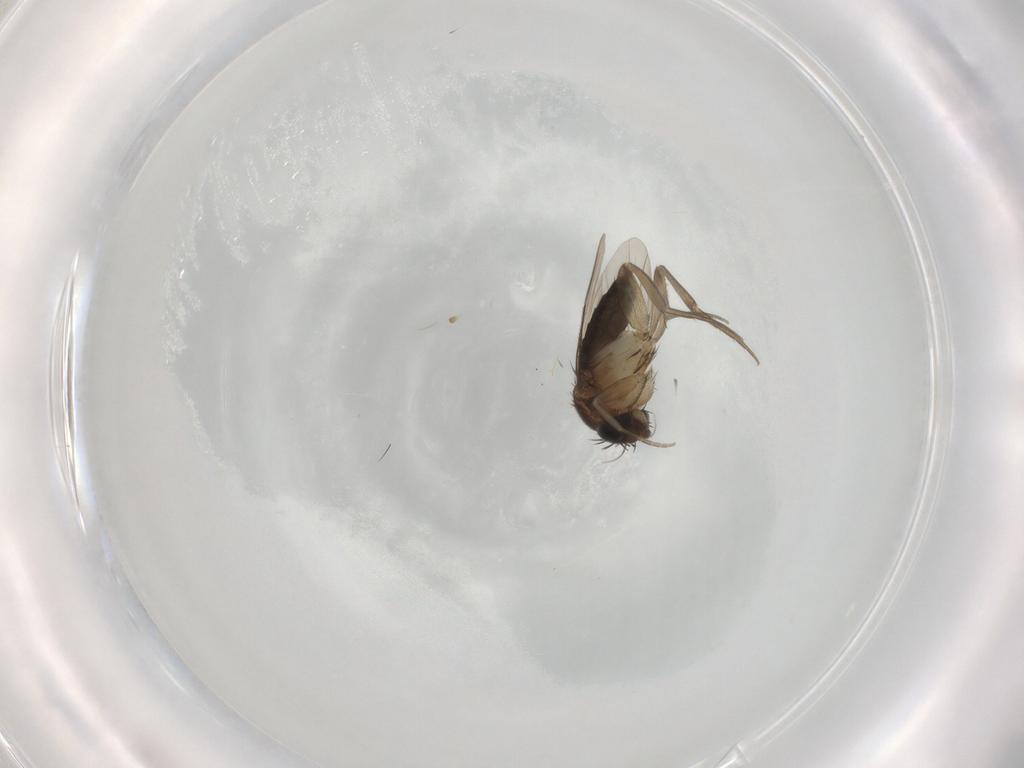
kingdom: Animalia
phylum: Arthropoda
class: Insecta
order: Diptera
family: Phoridae
